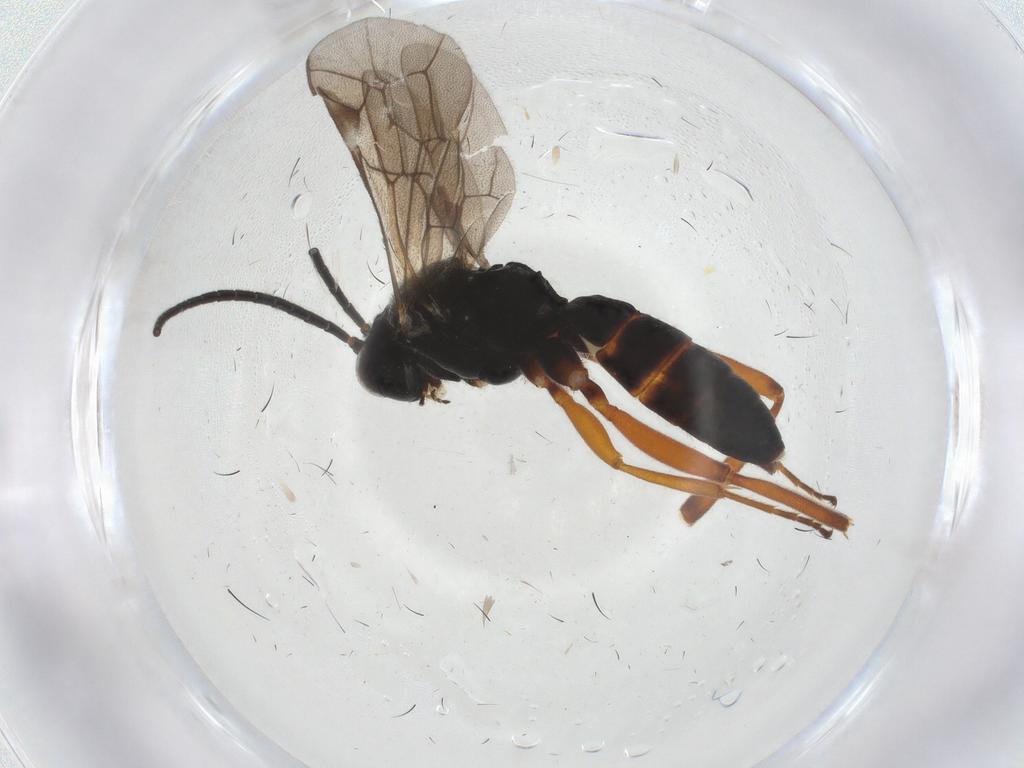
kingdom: Animalia
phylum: Arthropoda
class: Insecta
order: Hymenoptera
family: Ichneumonidae
